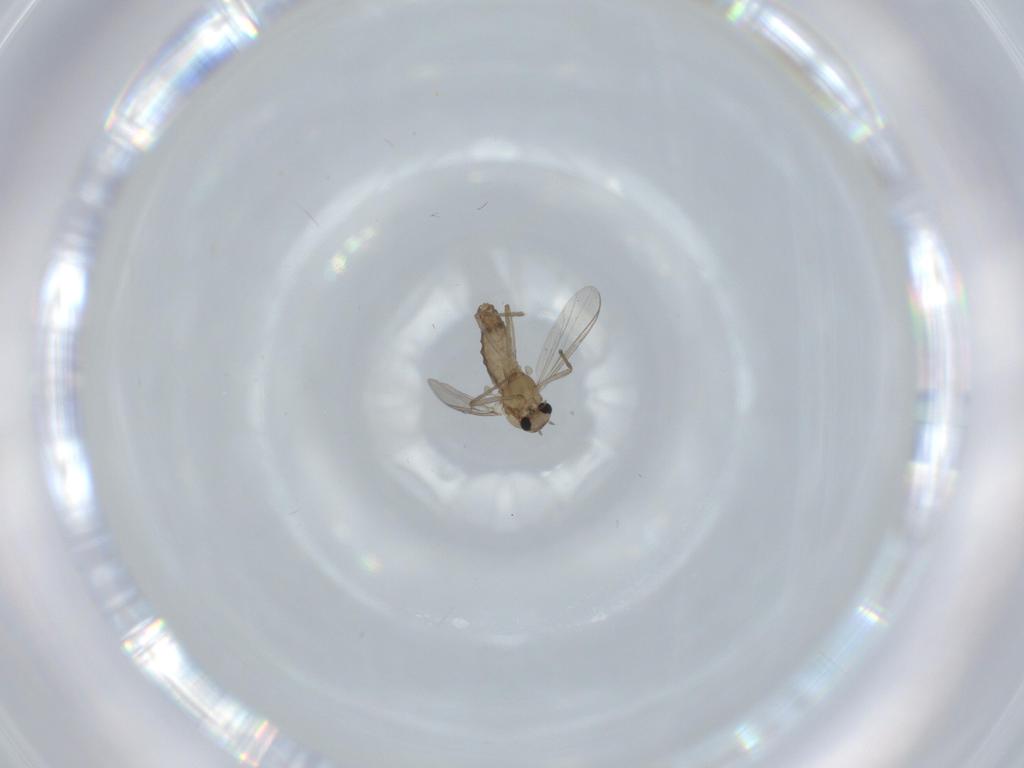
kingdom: Animalia
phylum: Arthropoda
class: Insecta
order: Diptera
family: Chironomidae
